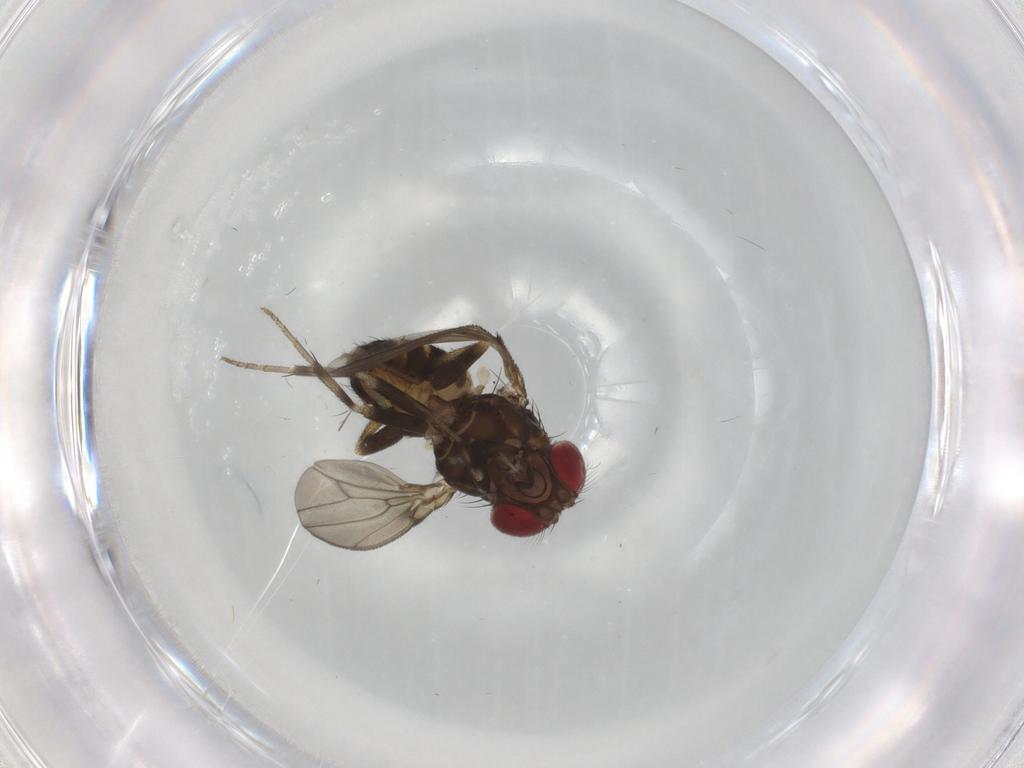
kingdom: Animalia
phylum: Arthropoda
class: Insecta
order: Diptera
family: Drosophilidae
